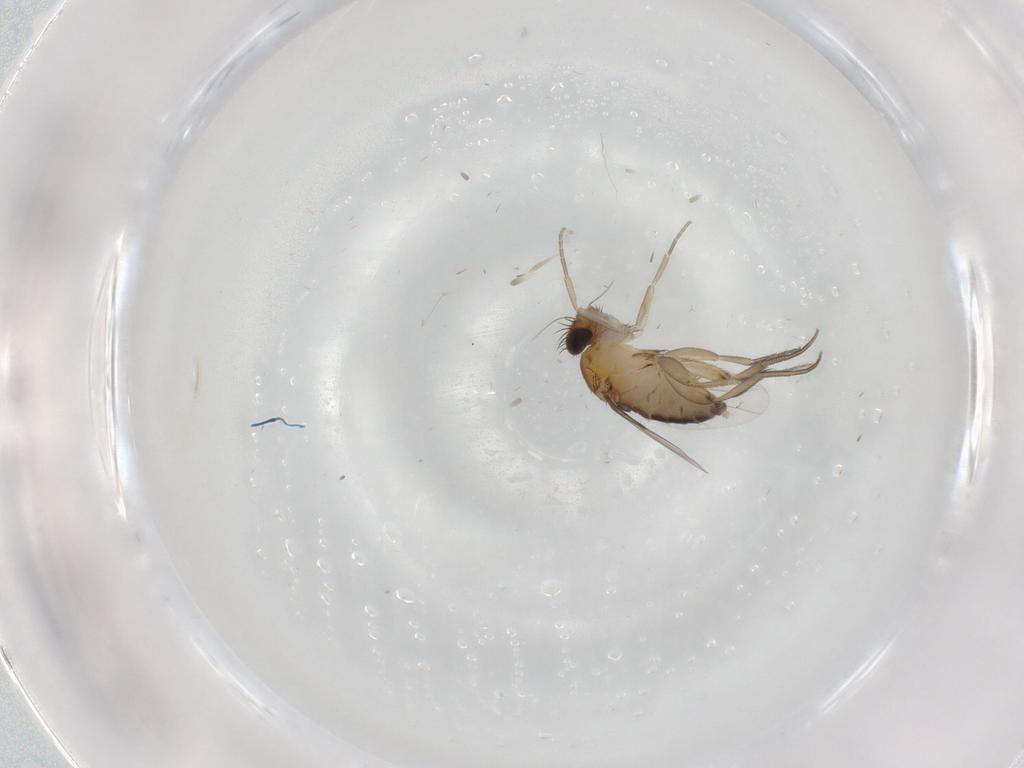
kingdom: Animalia
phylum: Arthropoda
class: Insecta
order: Diptera
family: Phoridae
